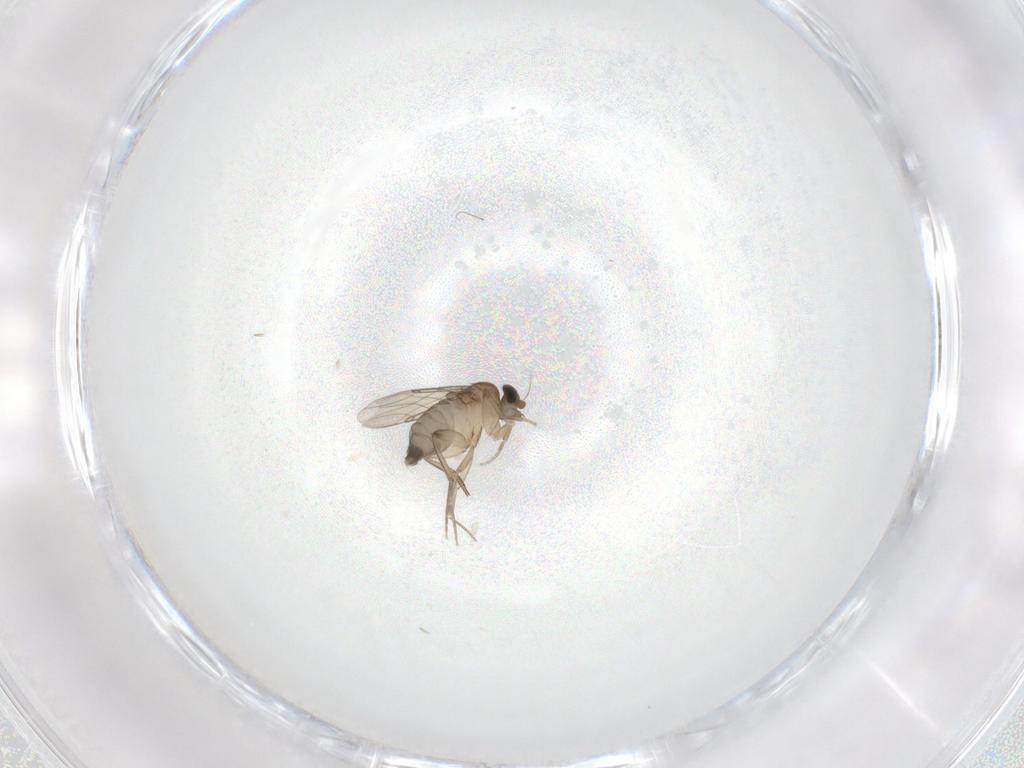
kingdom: Animalia
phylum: Arthropoda
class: Insecta
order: Diptera
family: Phoridae
